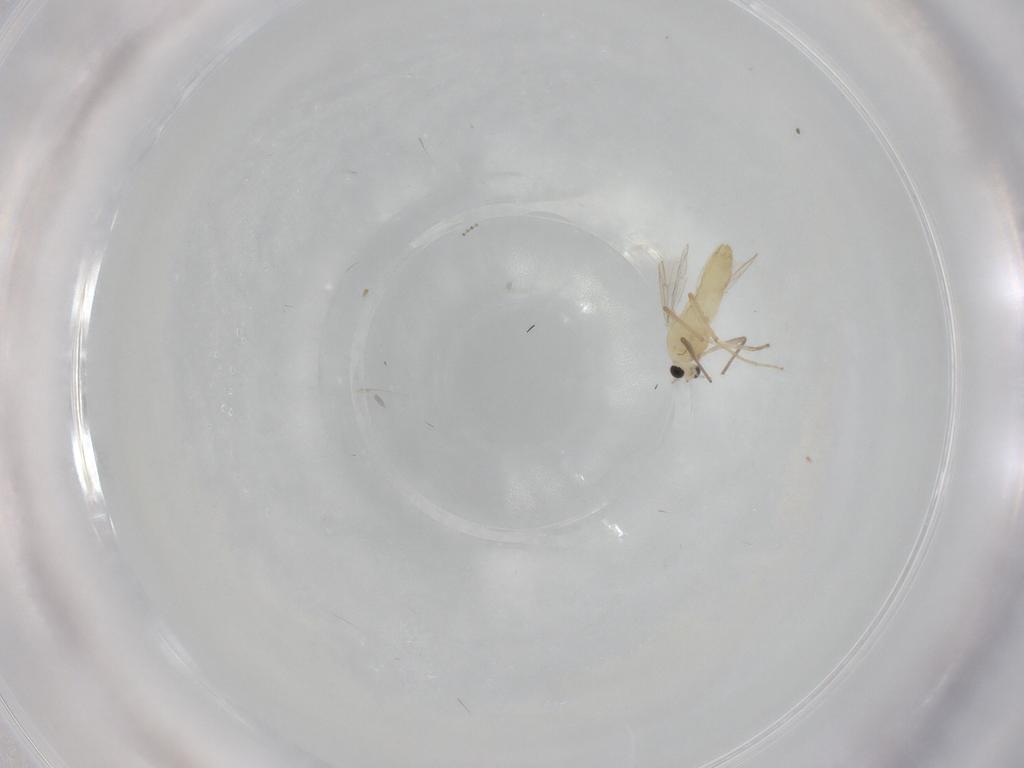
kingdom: Animalia
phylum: Arthropoda
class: Insecta
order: Diptera
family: Chironomidae
